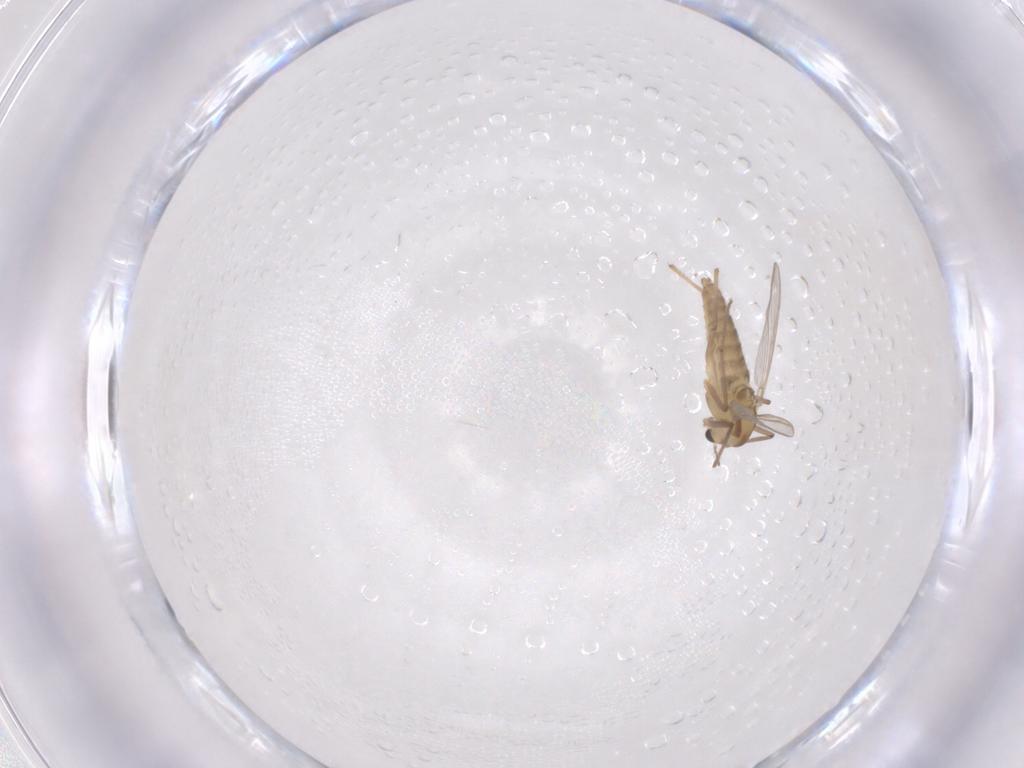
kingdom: Animalia
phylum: Arthropoda
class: Insecta
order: Diptera
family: Chironomidae
